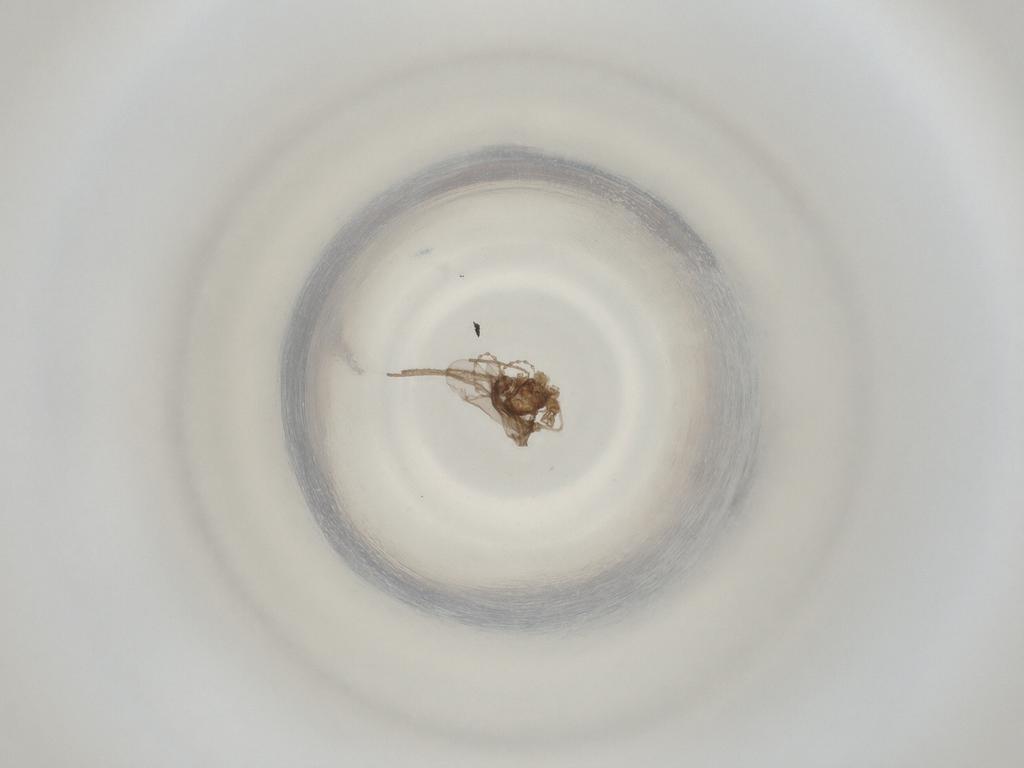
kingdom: Animalia
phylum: Arthropoda
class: Insecta
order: Diptera
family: Cecidomyiidae
